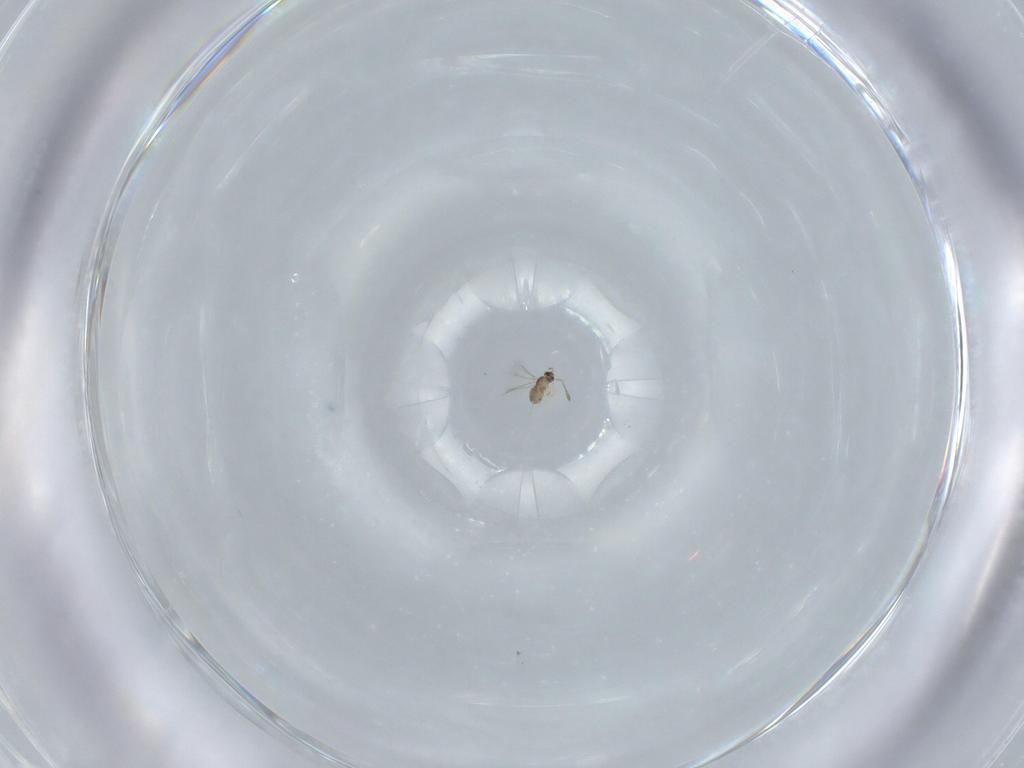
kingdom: Animalia
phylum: Arthropoda
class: Insecta
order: Hymenoptera
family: Mymaridae
